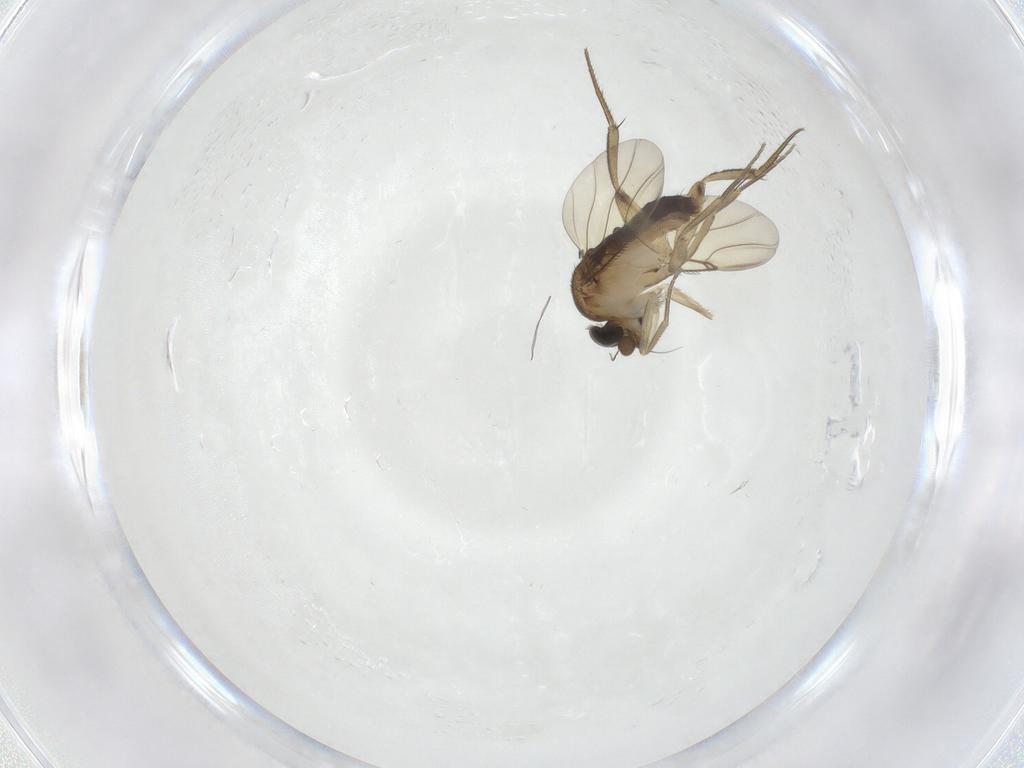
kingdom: Animalia
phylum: Arthropoda
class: Insecta
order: Diptera
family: Phoridae
